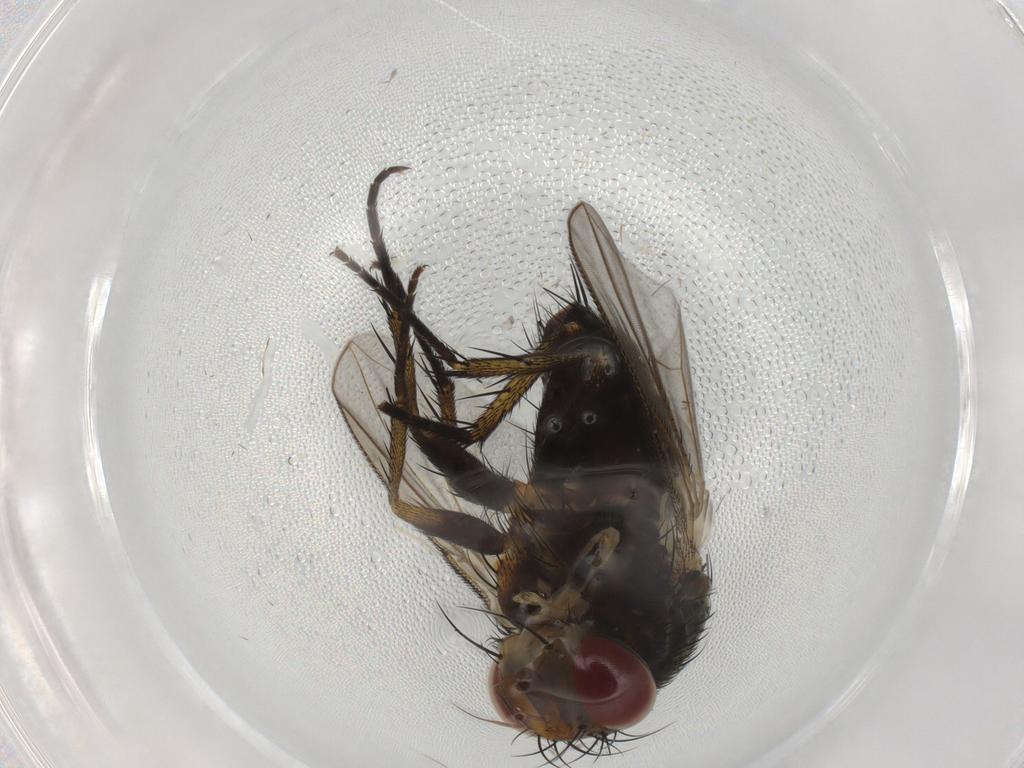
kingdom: Animalia
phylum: Arthropoda
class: Insecta
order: Diptera
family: Tachinidae
